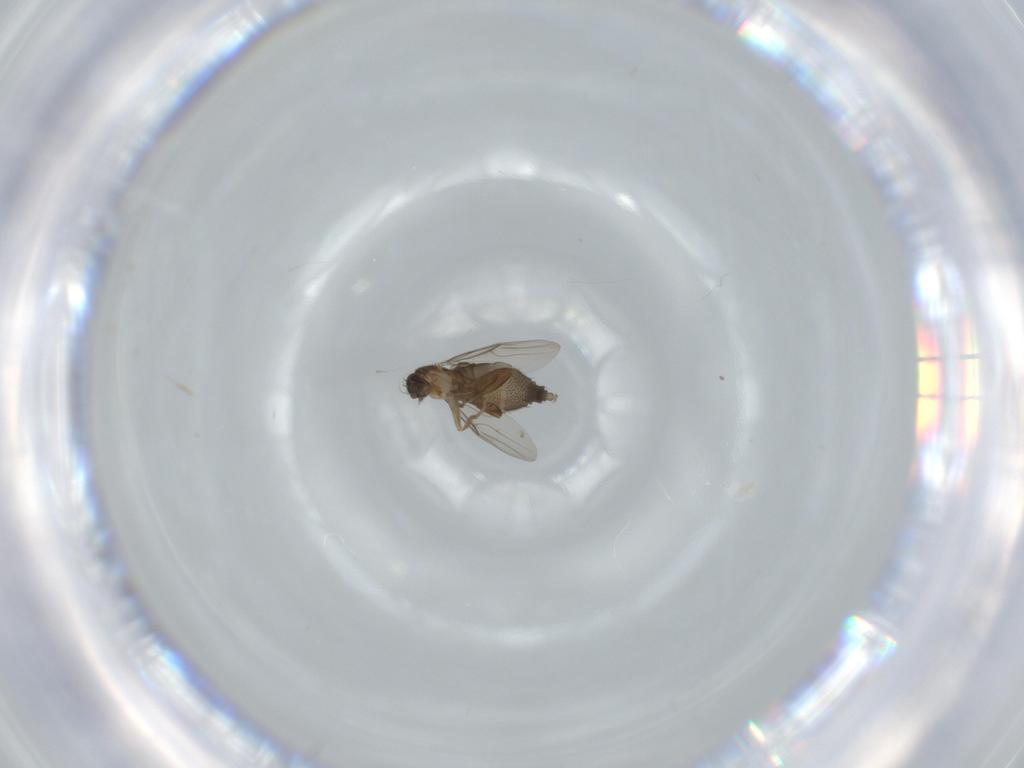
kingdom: Animalia
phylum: Arthropoda
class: Insecta
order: Diptera
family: Phoridae
